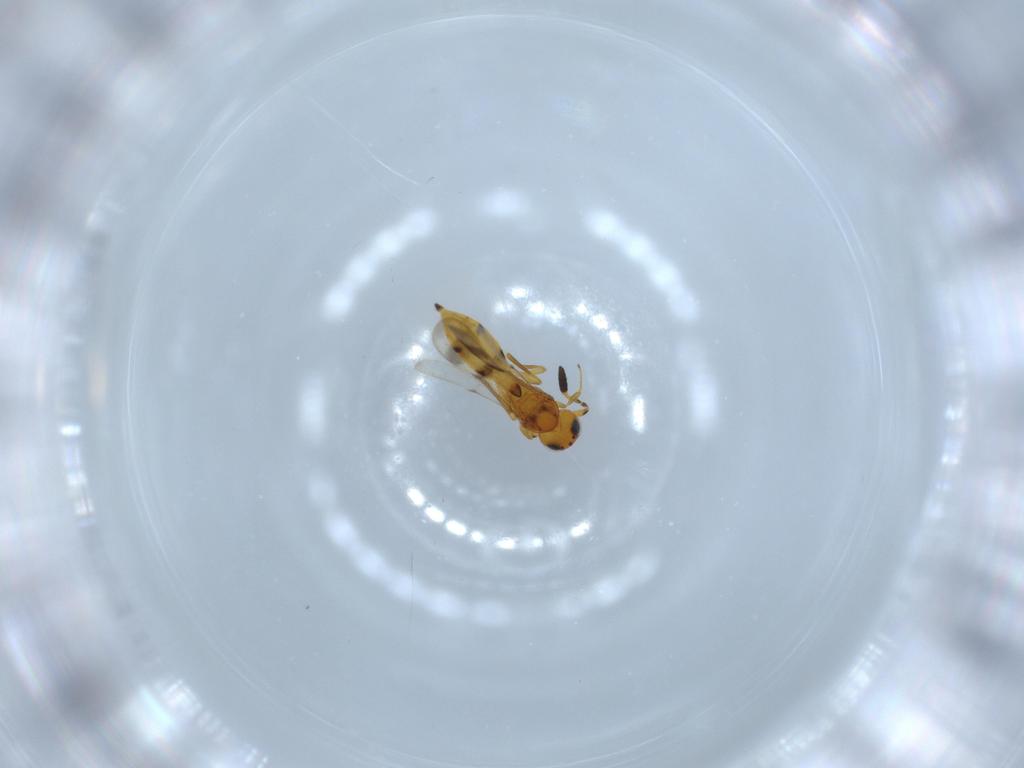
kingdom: Animalia
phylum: Arthropoda
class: Insecta
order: Hymenoptera
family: Scelionidae
